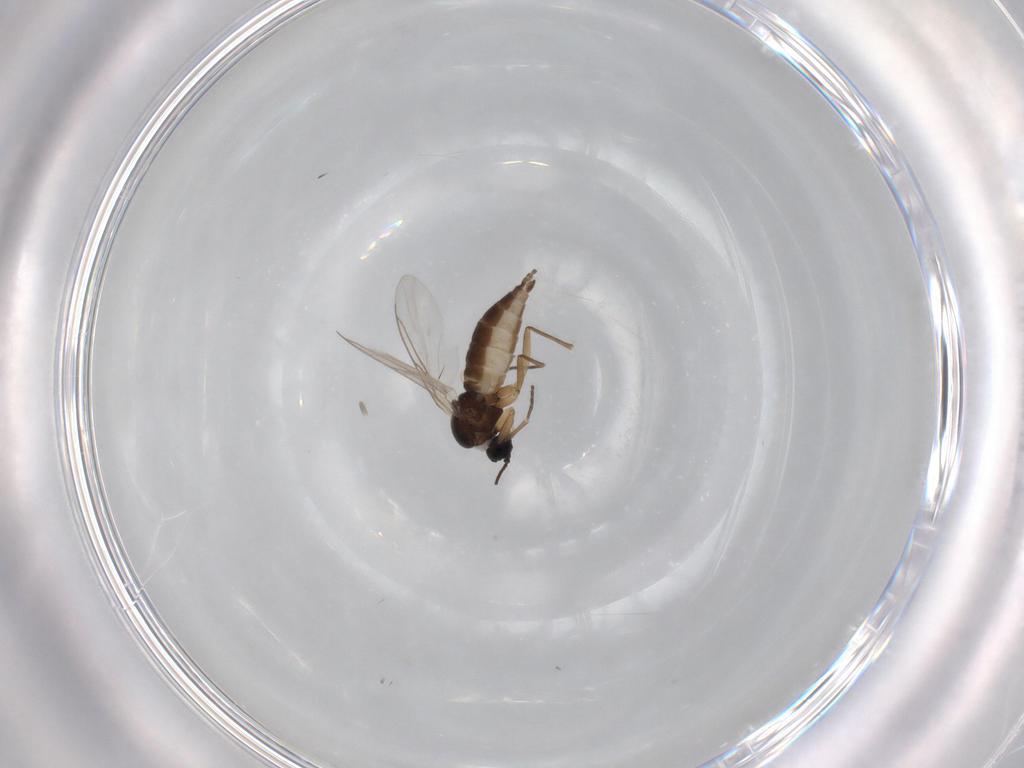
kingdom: Animalia
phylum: Arthropoda
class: Insecta
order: Diptera
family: Sciaridae
